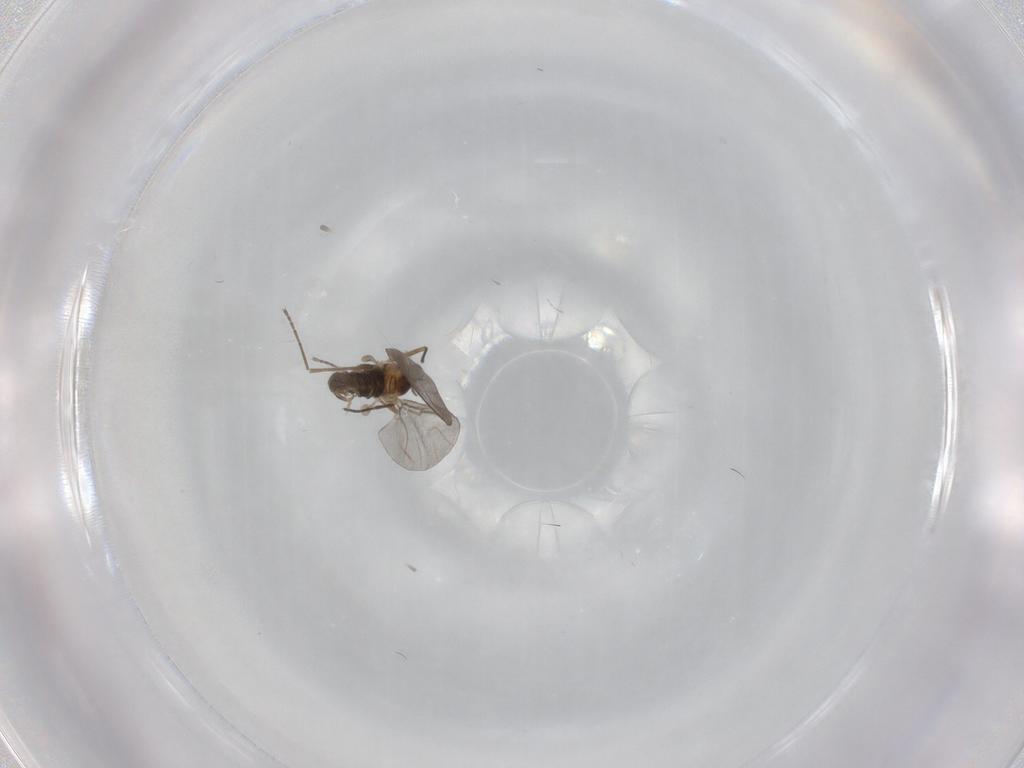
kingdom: Animalia
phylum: Arthropoda
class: Insecta
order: Diptera
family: Cecidomyiidae
